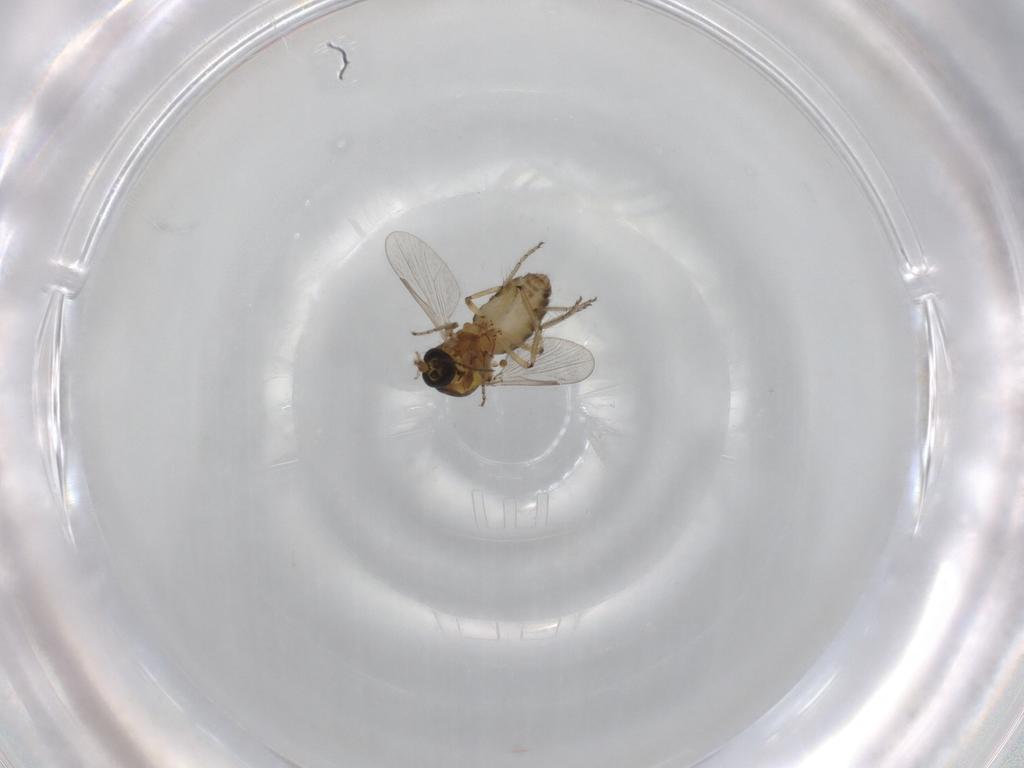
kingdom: Animalia
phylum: Arthropoda
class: Insecta
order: Diptera
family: Ceratopogonidae
